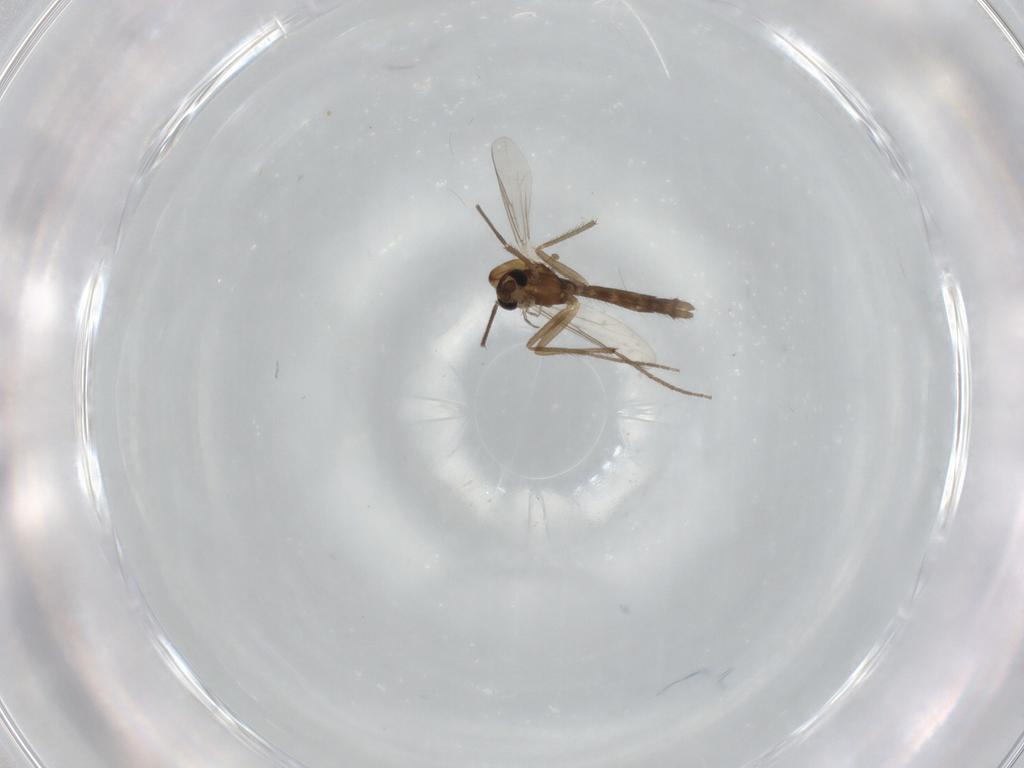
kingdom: Animalia
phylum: Arthropoda
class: Insecta
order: Diptera
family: Chironomidae
